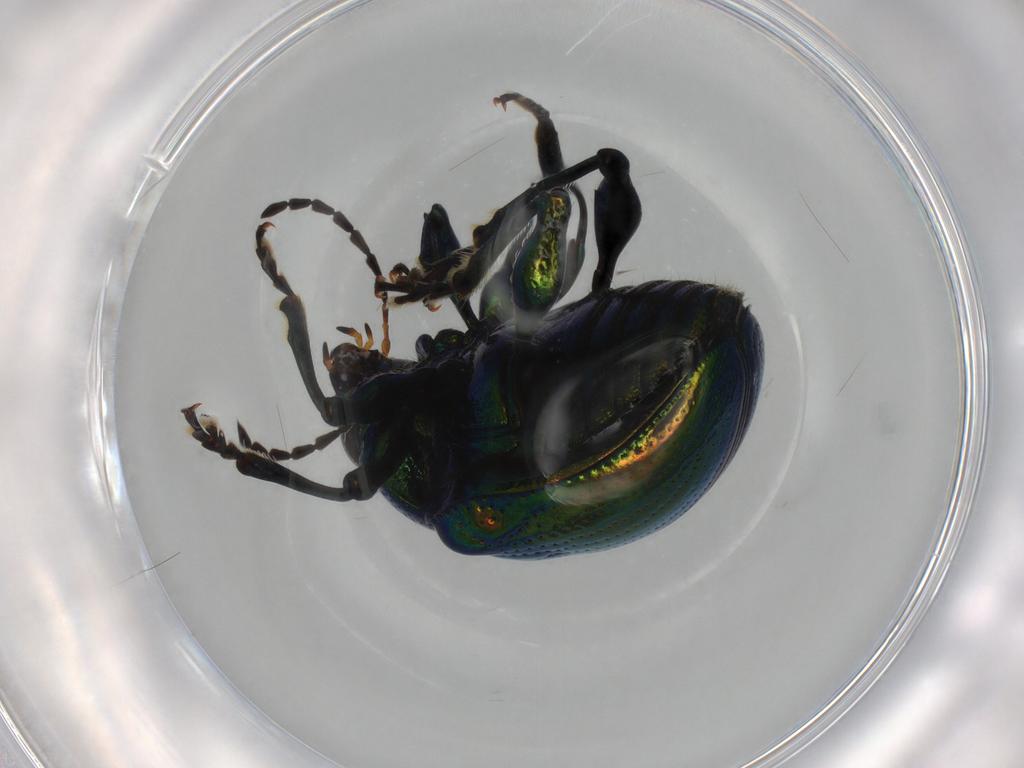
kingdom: Animalia
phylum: Arthropoda
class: Insecta
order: Coleoptera
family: Chrysomelidae
